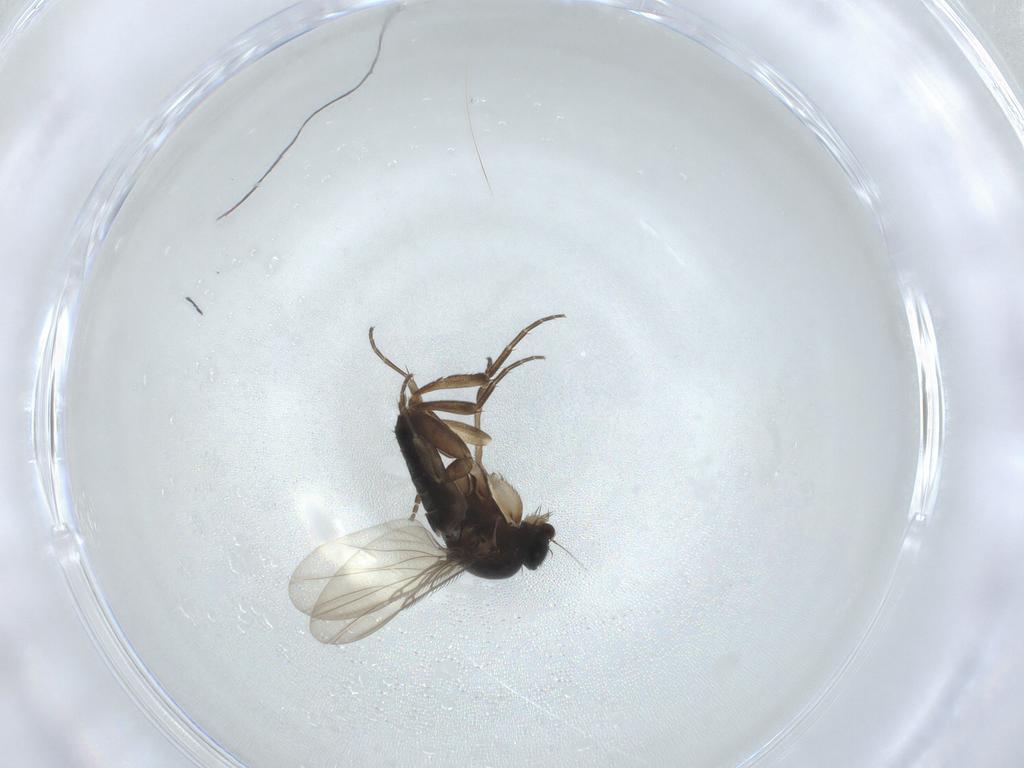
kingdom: Animalia
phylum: Arthropoda
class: Insecta
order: Diptera
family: Phoridae
